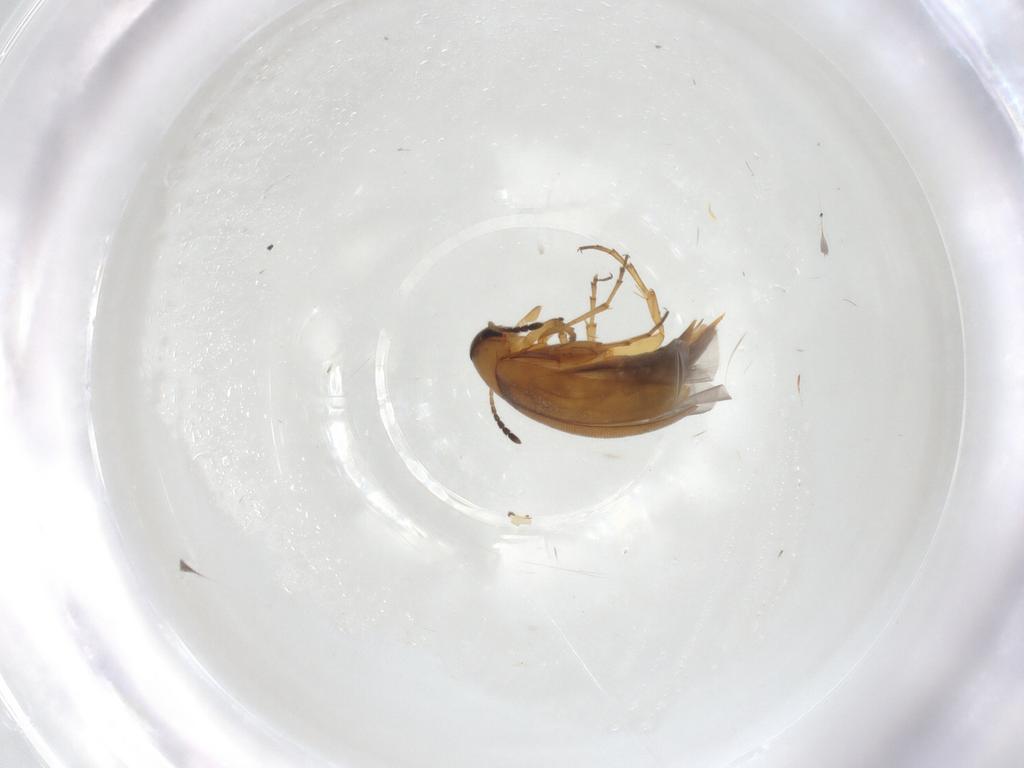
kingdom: Animalia
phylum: Arthropoda
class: Insecta
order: Coleoptera
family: Scraptiidae
